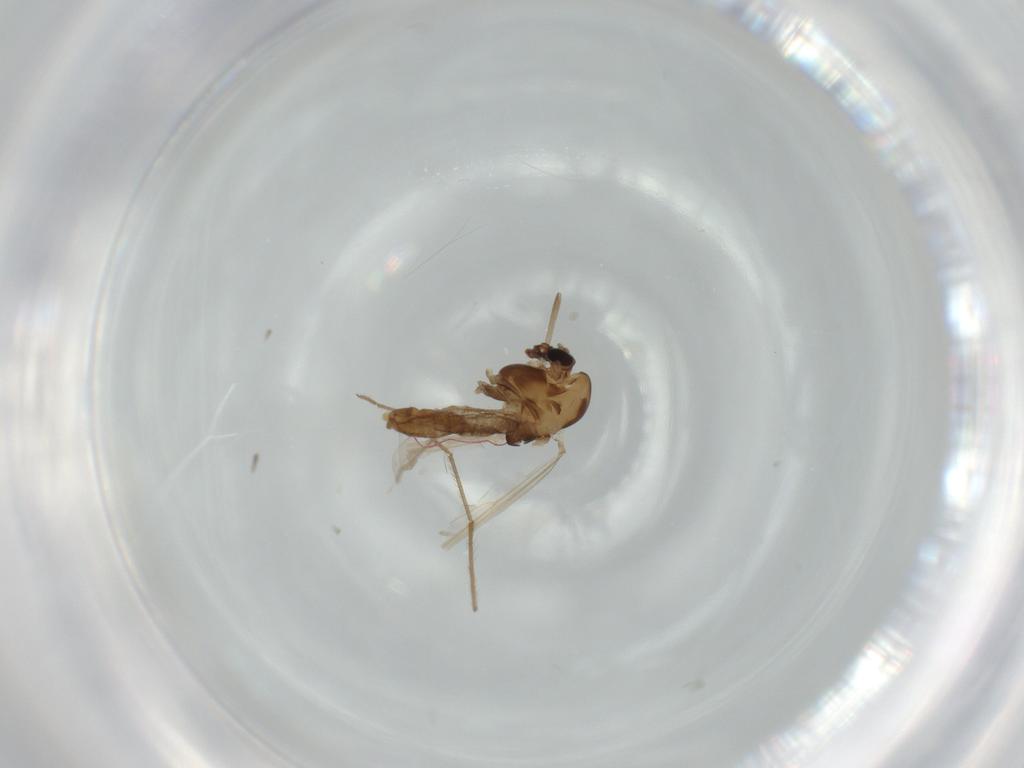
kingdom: Animalia
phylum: Arthropoda
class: Insecta
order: Diptera
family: Chironomidae
